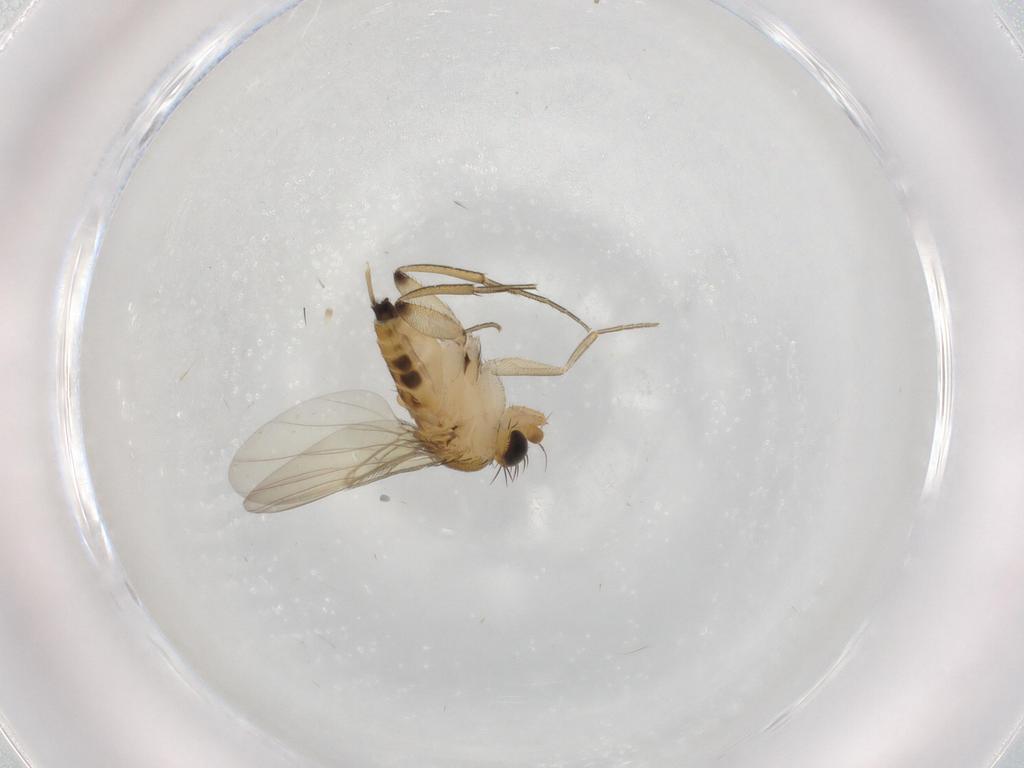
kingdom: Animalia
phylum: Arthropoda
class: Insecta
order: Diptera
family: Phoridae
